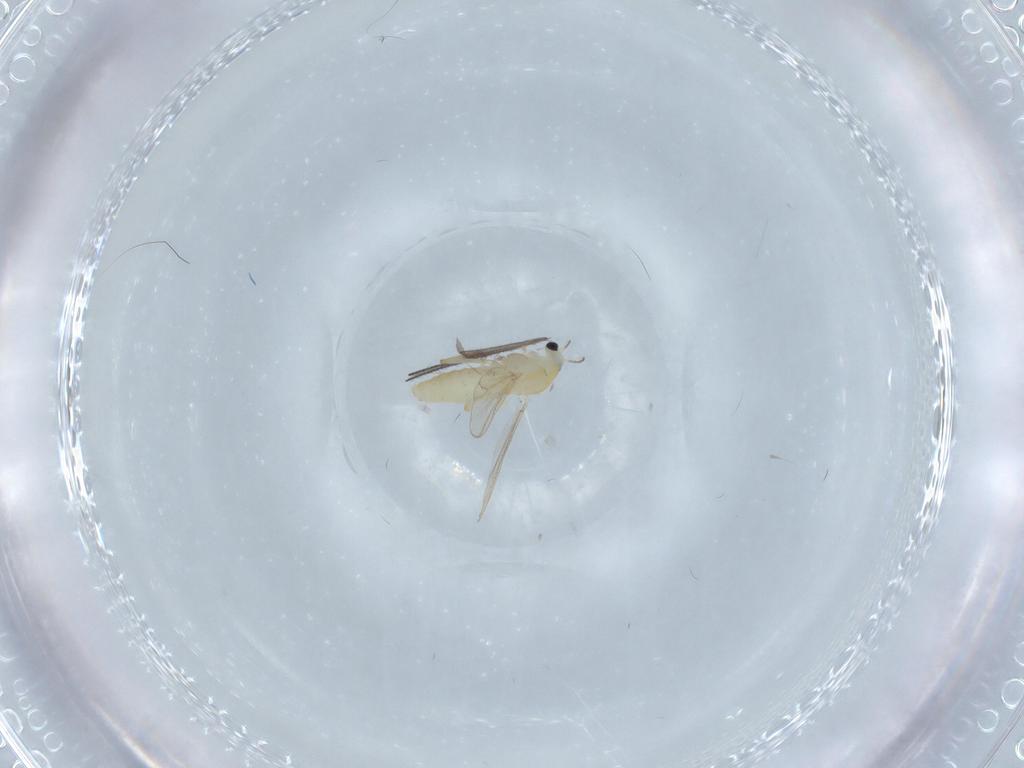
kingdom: Animalia
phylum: Arthropoda
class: Insecta
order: Diptera
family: Chironomidae
